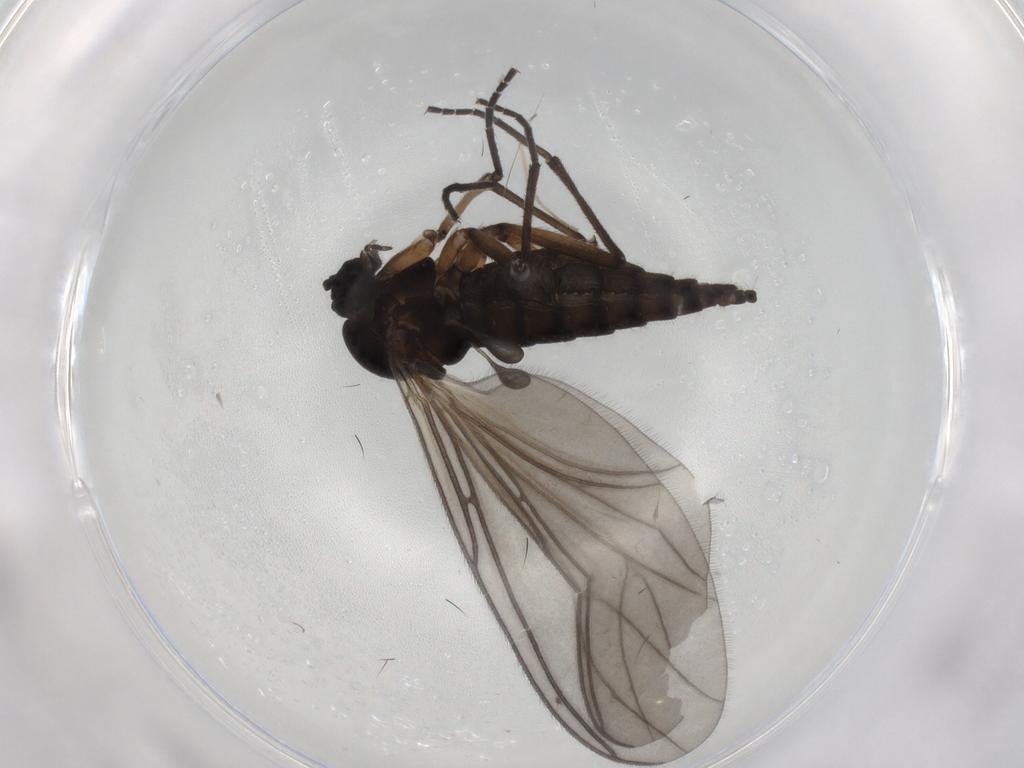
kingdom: Animalia
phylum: Arthropoda
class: Insecta
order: Diptera
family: Sciaridae
